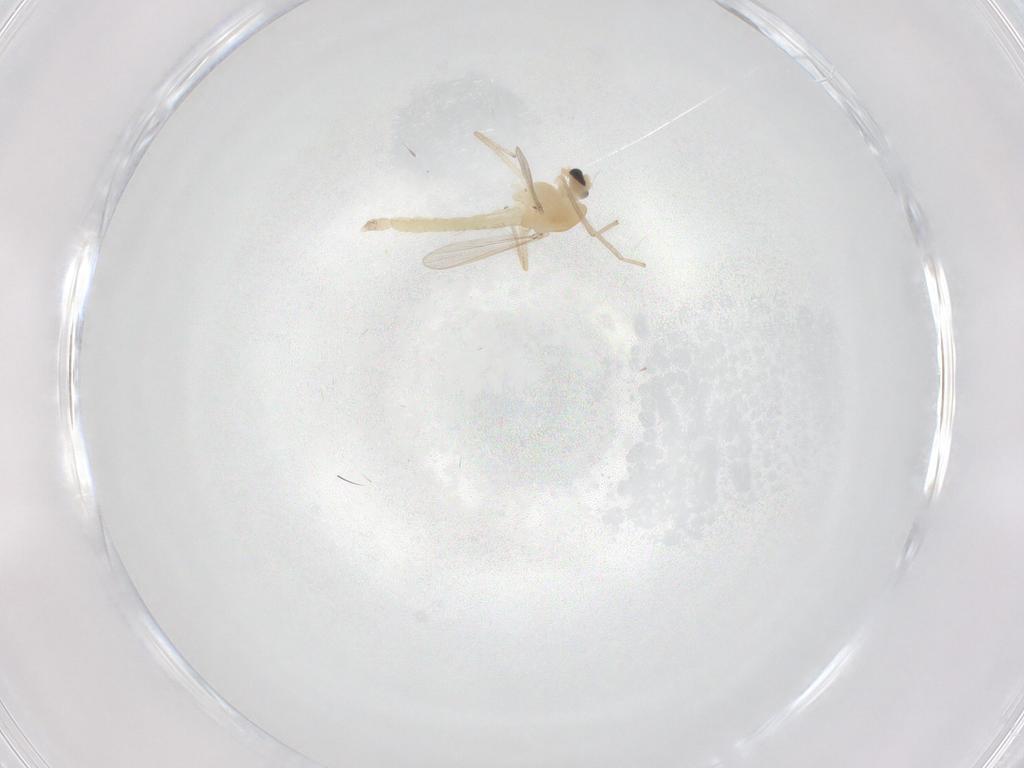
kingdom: Animalia
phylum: Arthropoda
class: Insecta
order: Diptera
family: Chironomidae
